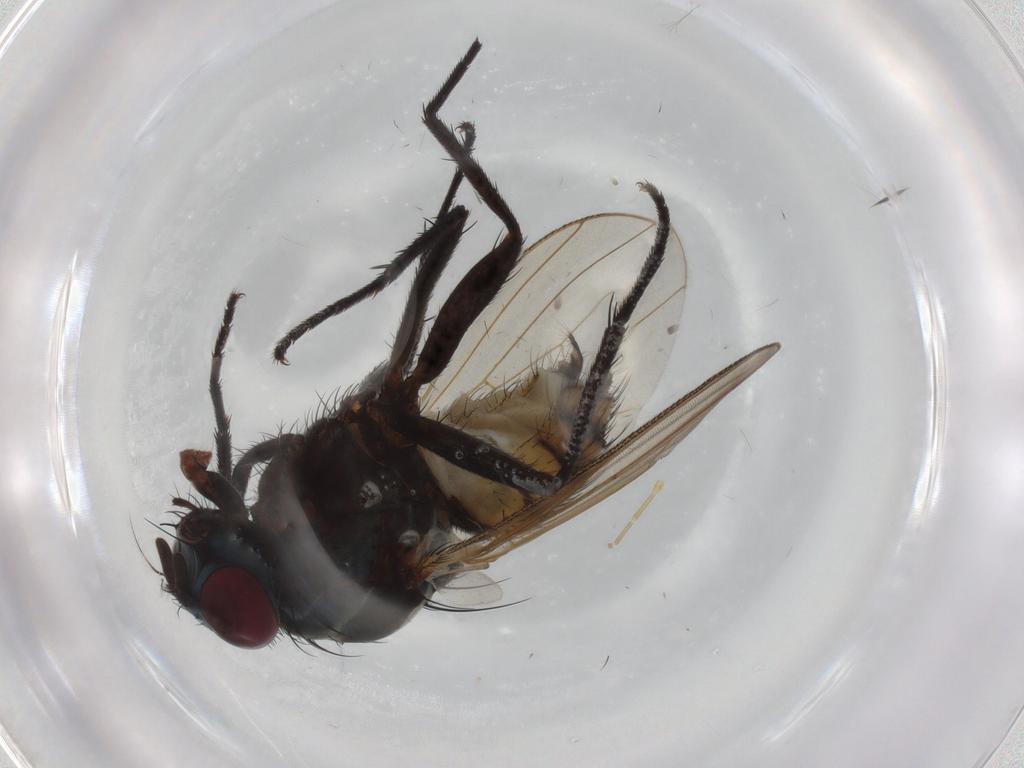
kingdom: Animalia
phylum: Arthropoda
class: Insecta
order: Diptera
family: Anthomyiidae
